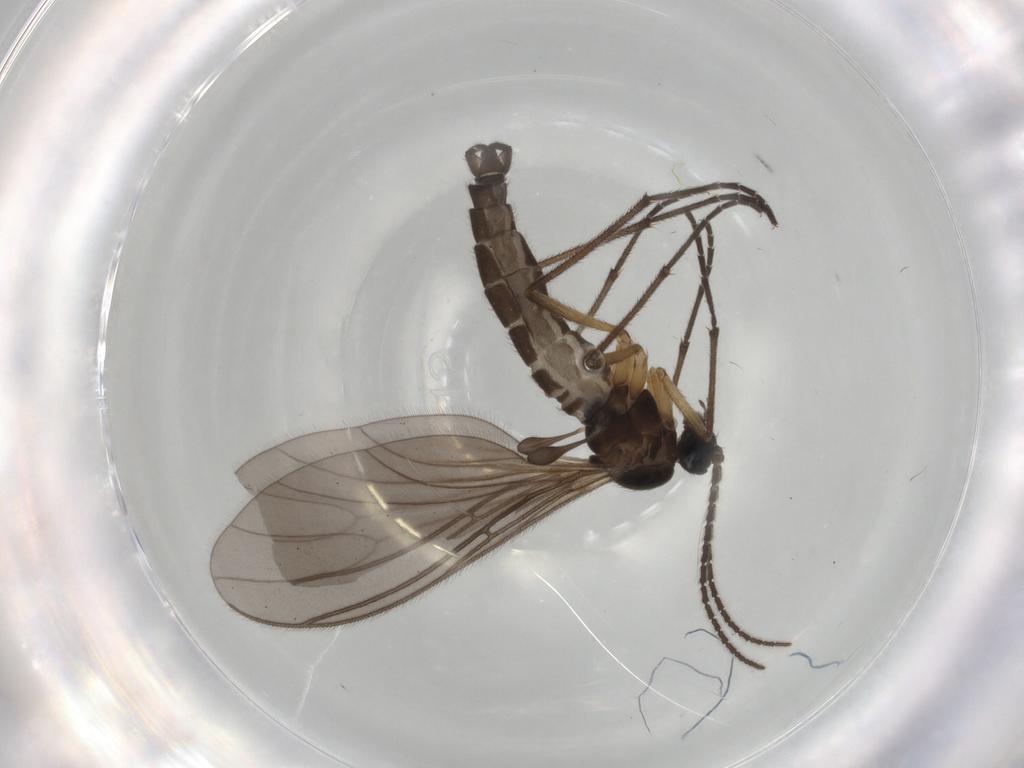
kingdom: Animalia
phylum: Arthropoda
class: Insecta
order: Diptera
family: Sciaridae
